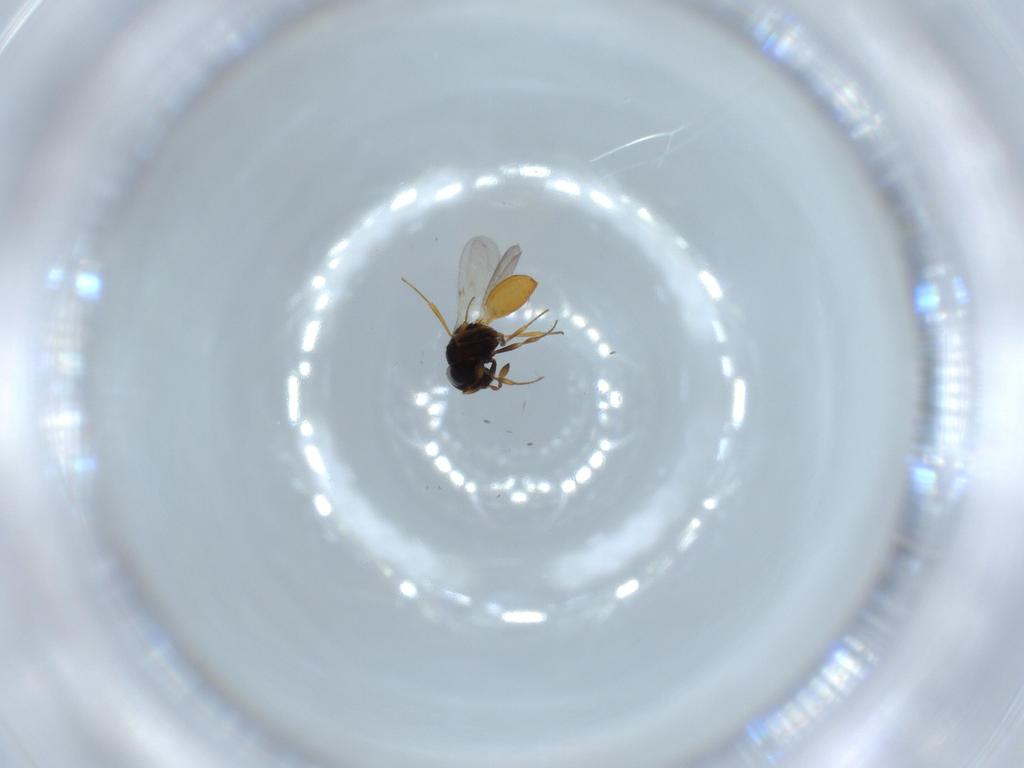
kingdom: Animalia
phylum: Arthropoda
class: Insecta
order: Hymenoptera
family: Scelionidae
